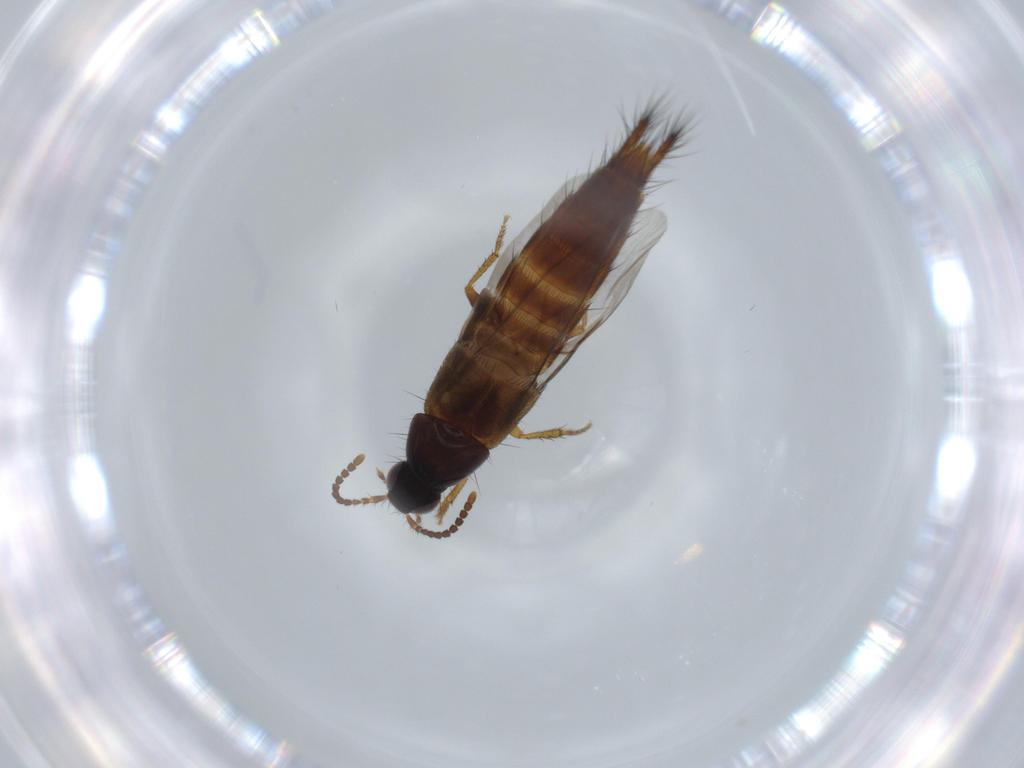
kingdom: Animalia
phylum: Arthropoda
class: Insecta
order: Coleoptera
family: Staphylinidae
